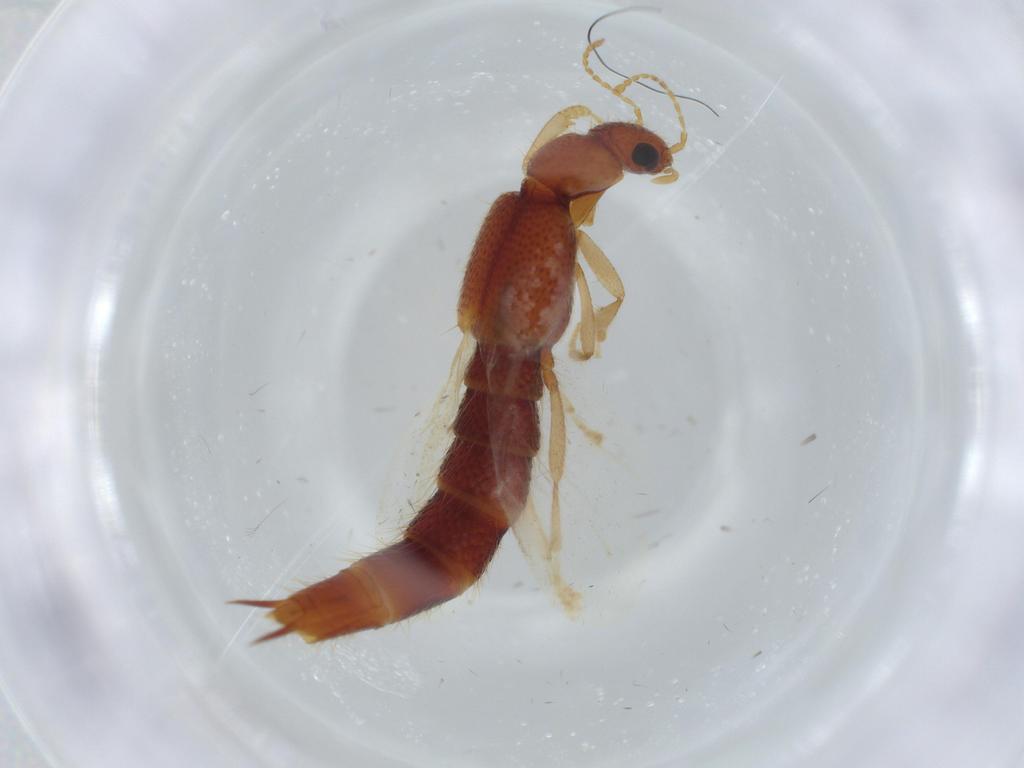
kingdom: Animalia
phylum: Arthropoda
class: Insecta
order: Coleoptera
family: Staphylinidae
